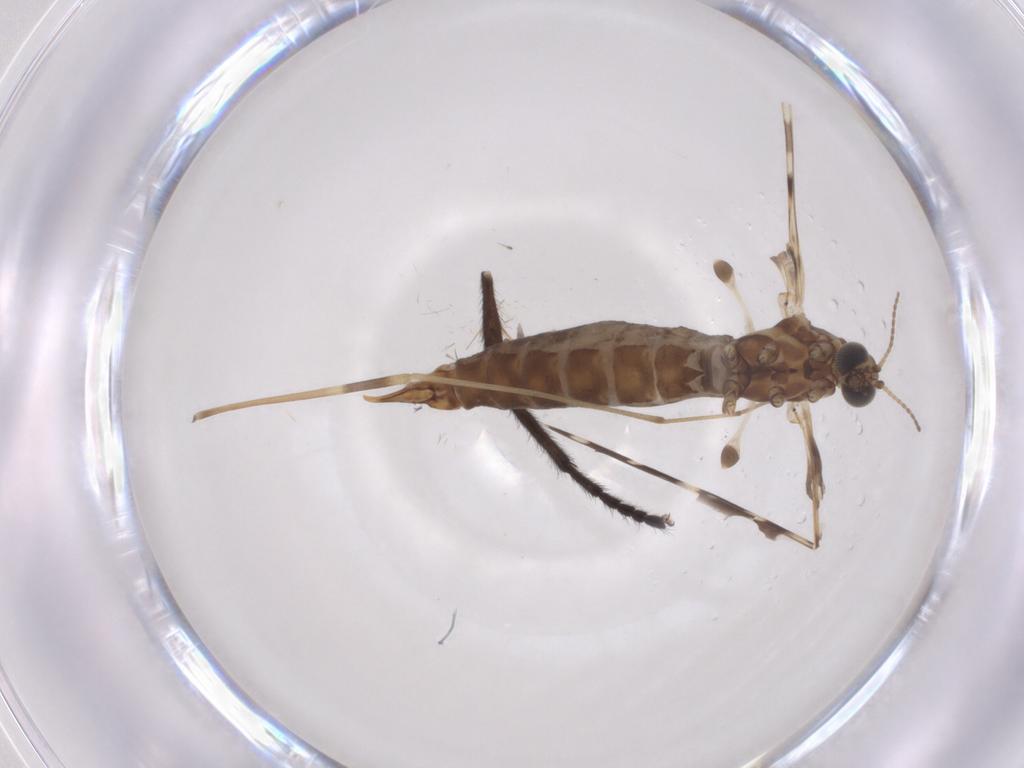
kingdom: Animalia
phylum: Arthropoda
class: Insecta
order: Diptera
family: Limoniidae
